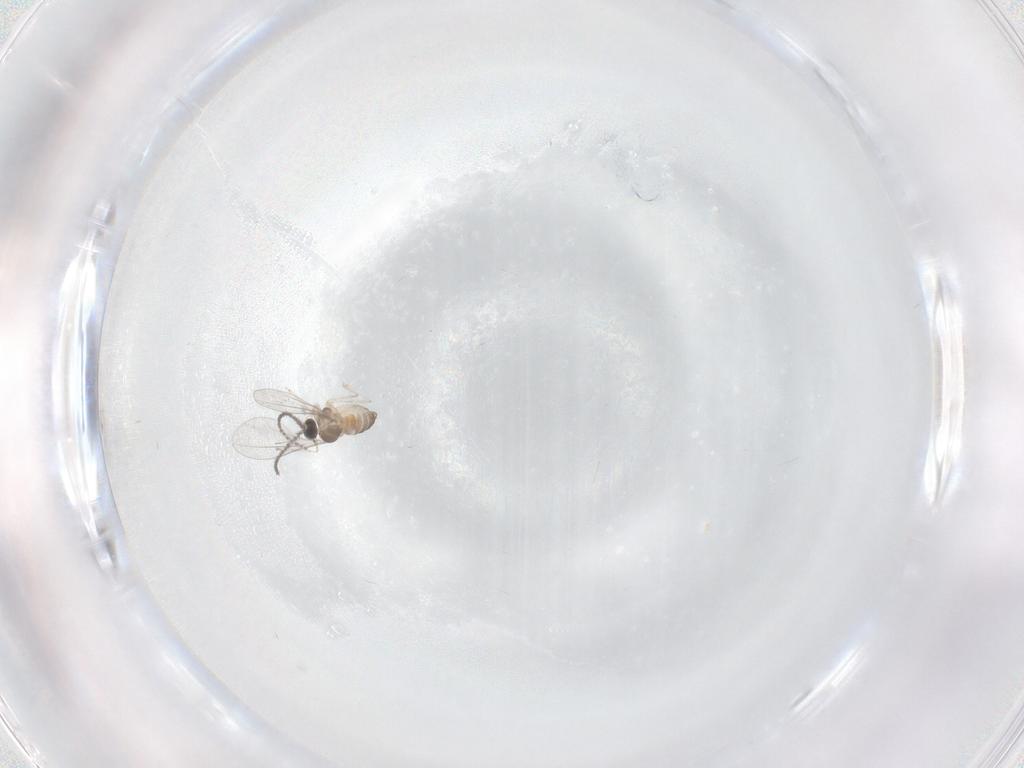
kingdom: Animalia
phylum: Arthropoda
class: Insecta
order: Diptera
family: Cecidomyiidae
